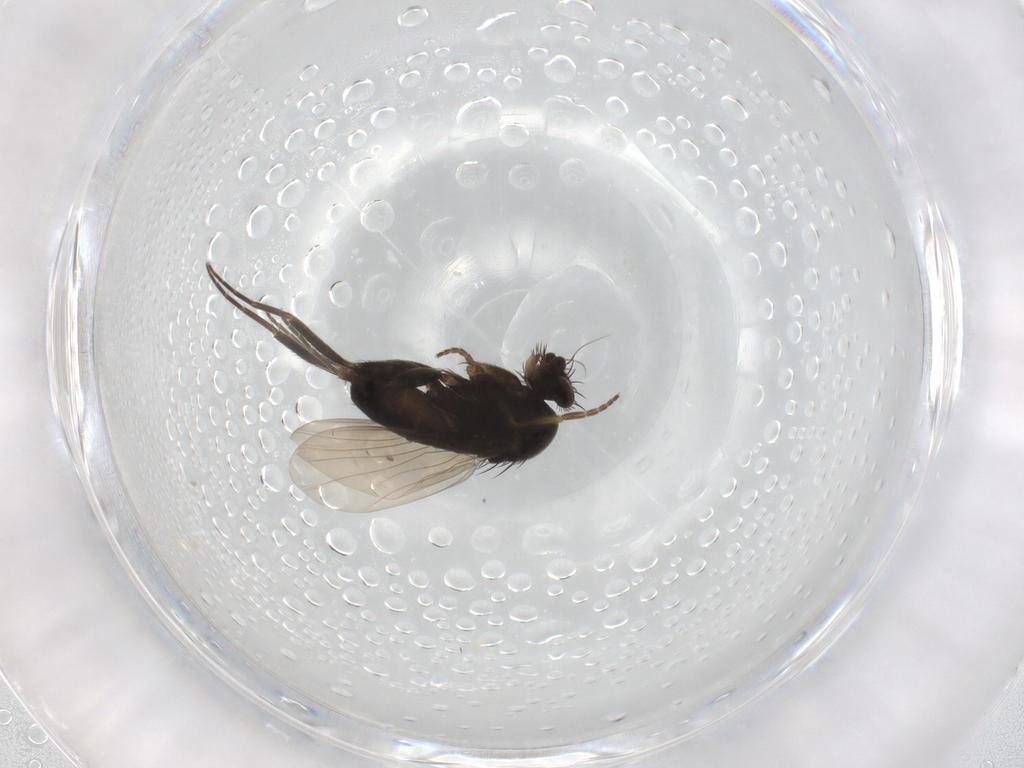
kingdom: Animalia
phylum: Arthropoda
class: Insecta
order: Diptera
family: Phoridae
